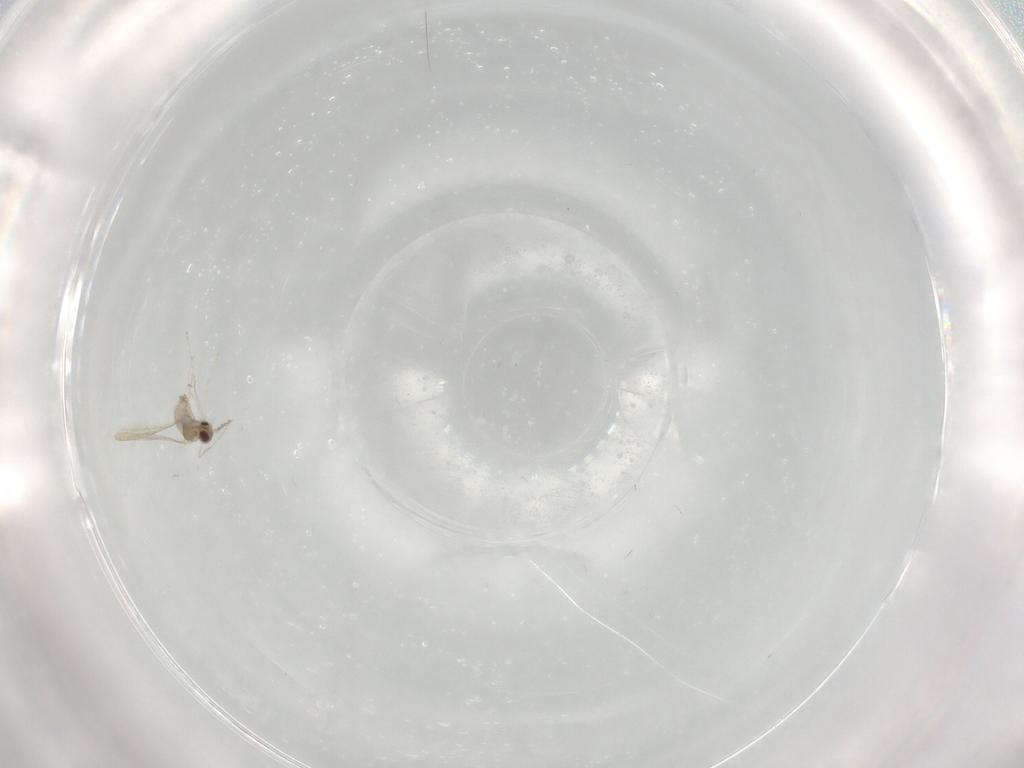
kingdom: Animalia
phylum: Arthropoda
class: Insecta
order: Diptera
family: Cecidomyiidae
